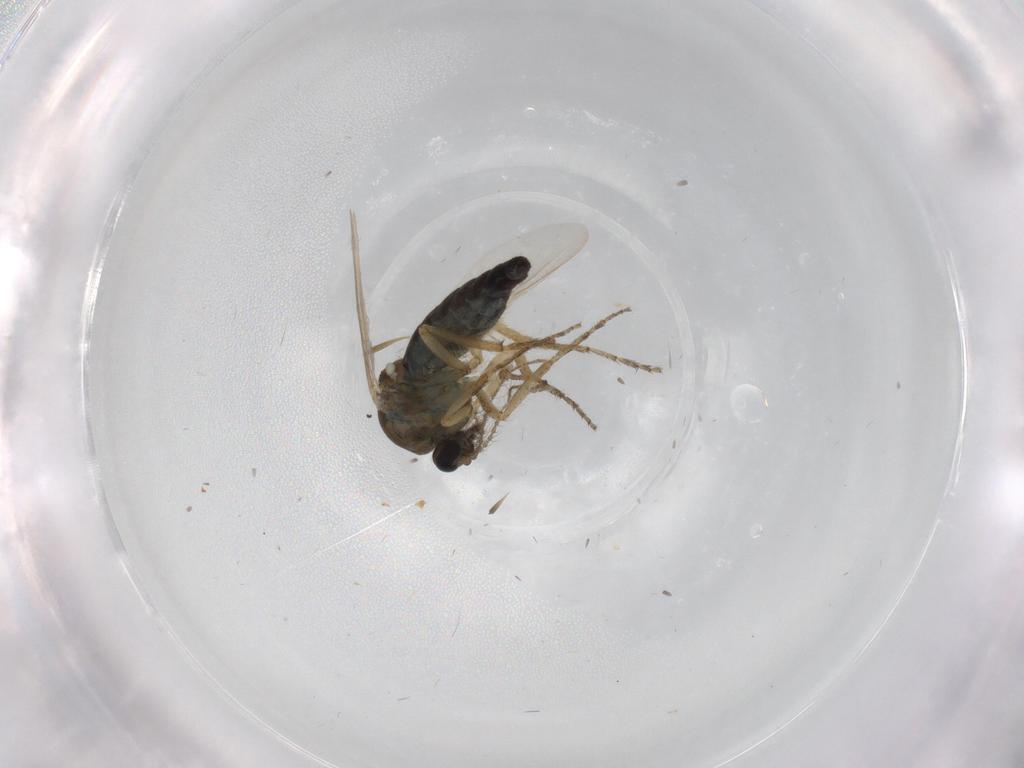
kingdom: Animalia
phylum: Arthropoda
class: Insecta
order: Diptera
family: Ceratopogonidae
